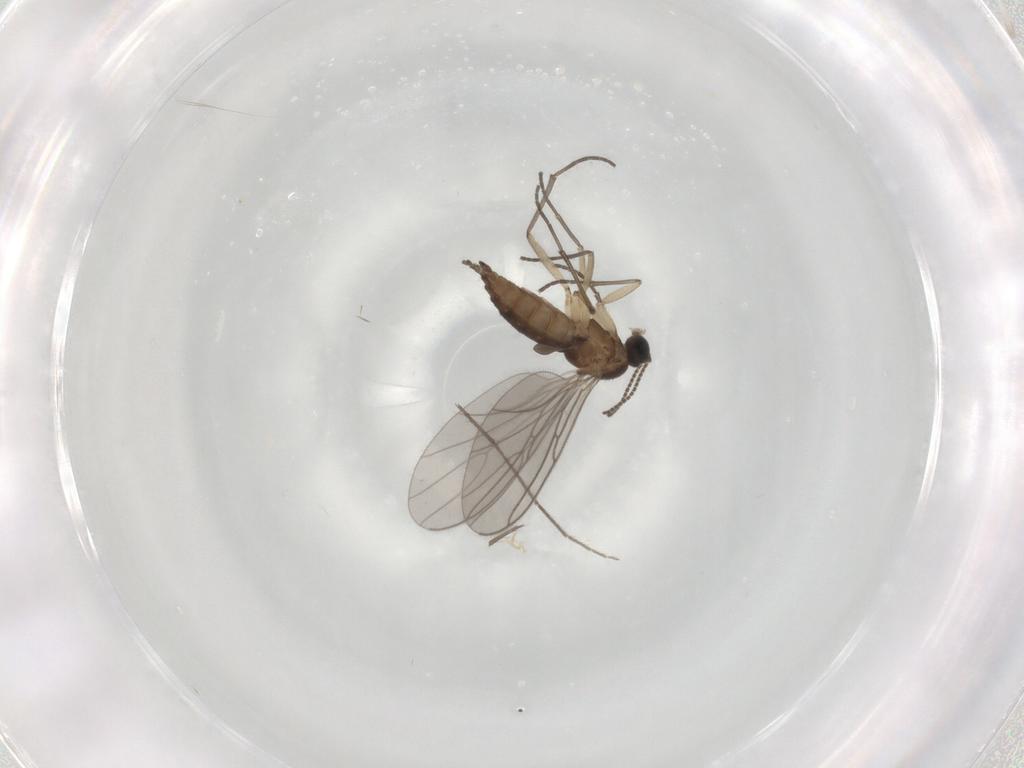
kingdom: Animalia
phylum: Arthropoda
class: Insecta
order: Diptera
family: Sciaridae
